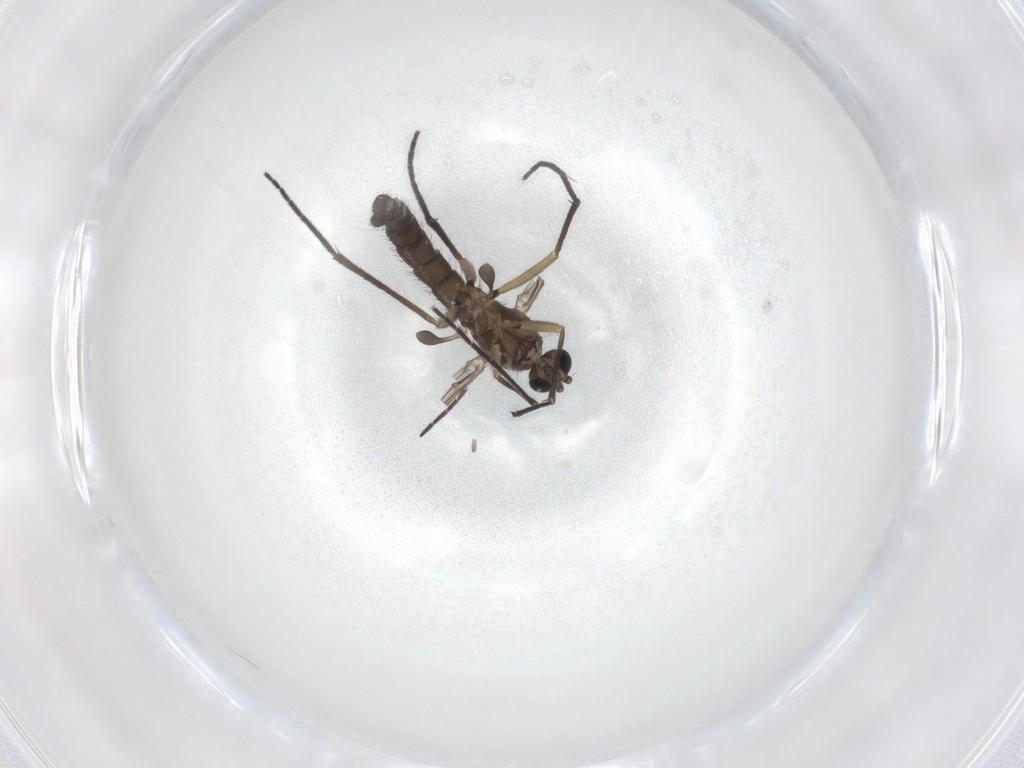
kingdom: Animalia
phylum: Arthropoda
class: Insecta
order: Diptera
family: Sciaridae
